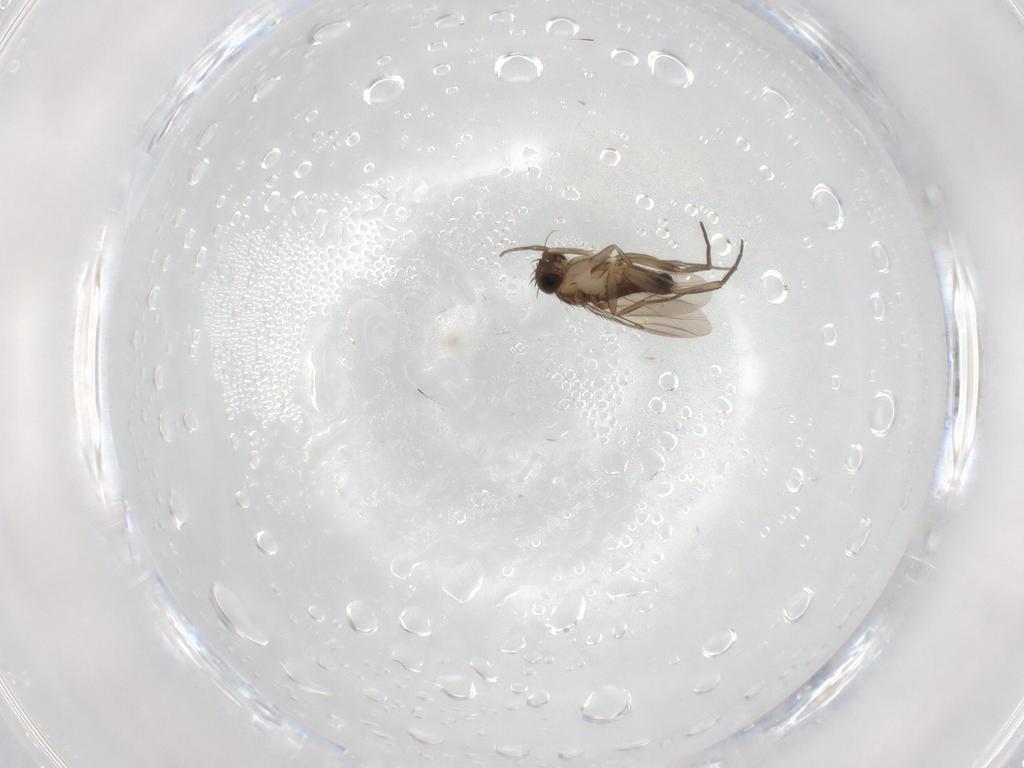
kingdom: Animalia
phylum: Arthropoda
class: Insecta
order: Diptera
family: Phoridae
